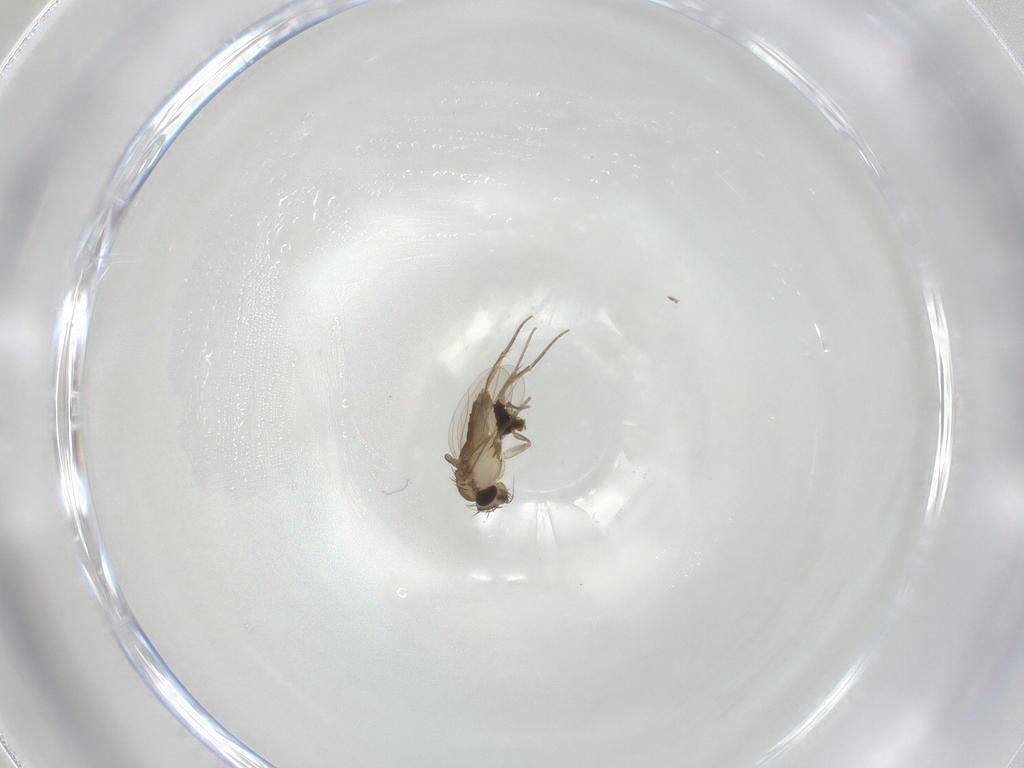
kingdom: Animalia
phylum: Arthropoda
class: Insecta
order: Diptera
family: Phoridae
